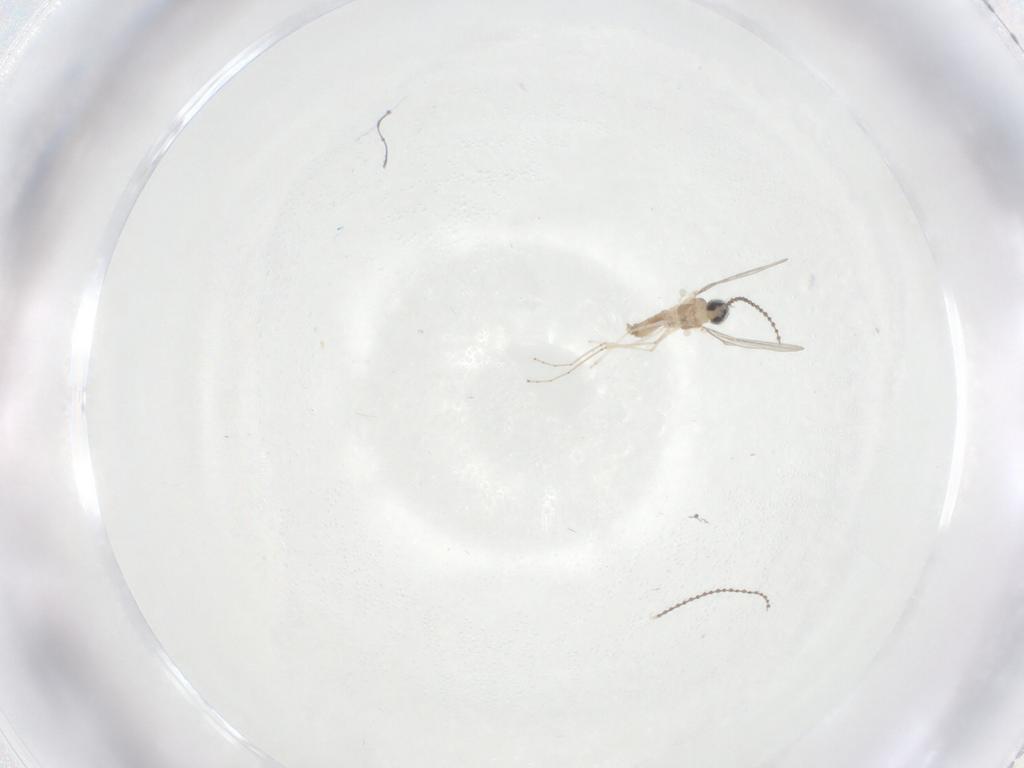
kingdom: Animalia
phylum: Arthropoda
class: Insecta
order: Diptera
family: Cecidomyiidae
